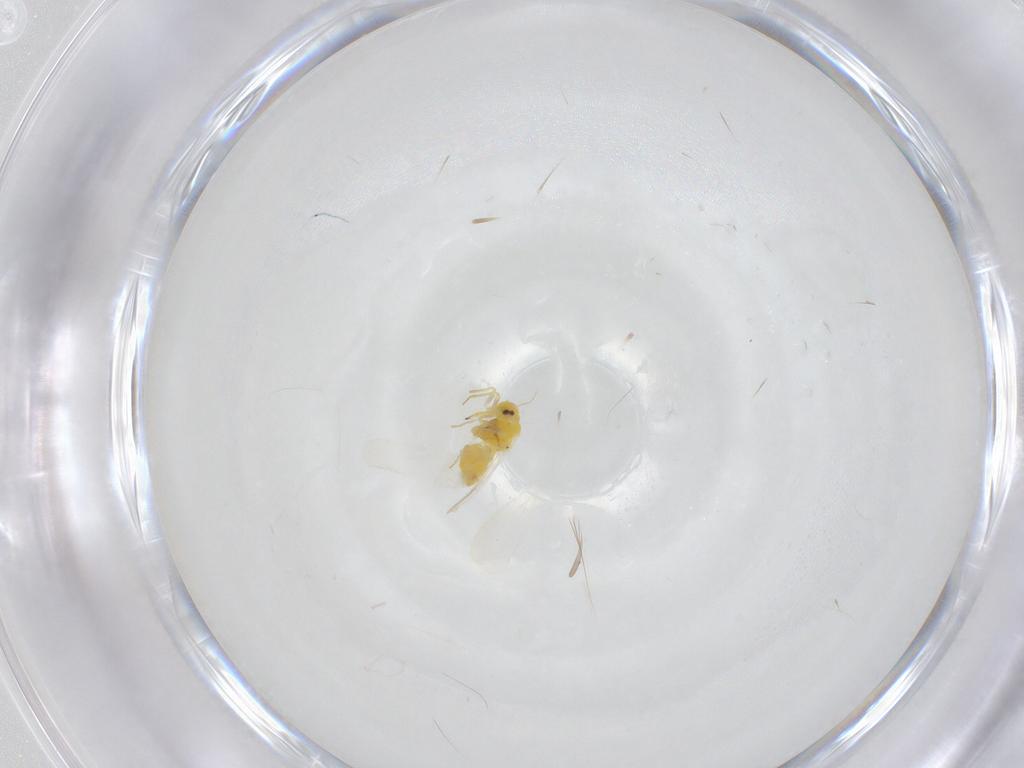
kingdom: Animalia
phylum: Arthropoda
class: Insecta
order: Hemiptera
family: Aleyrodidae
